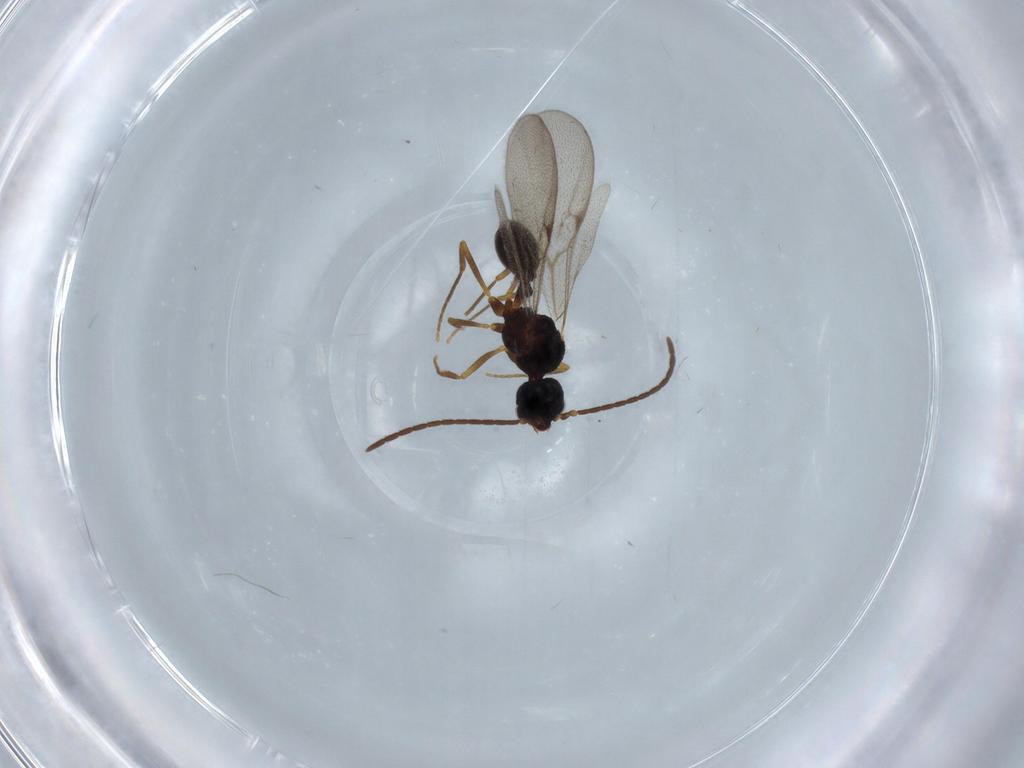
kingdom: Animalia
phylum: Arthropoda
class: Insecta
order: Hymenoptera
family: Formicidae
